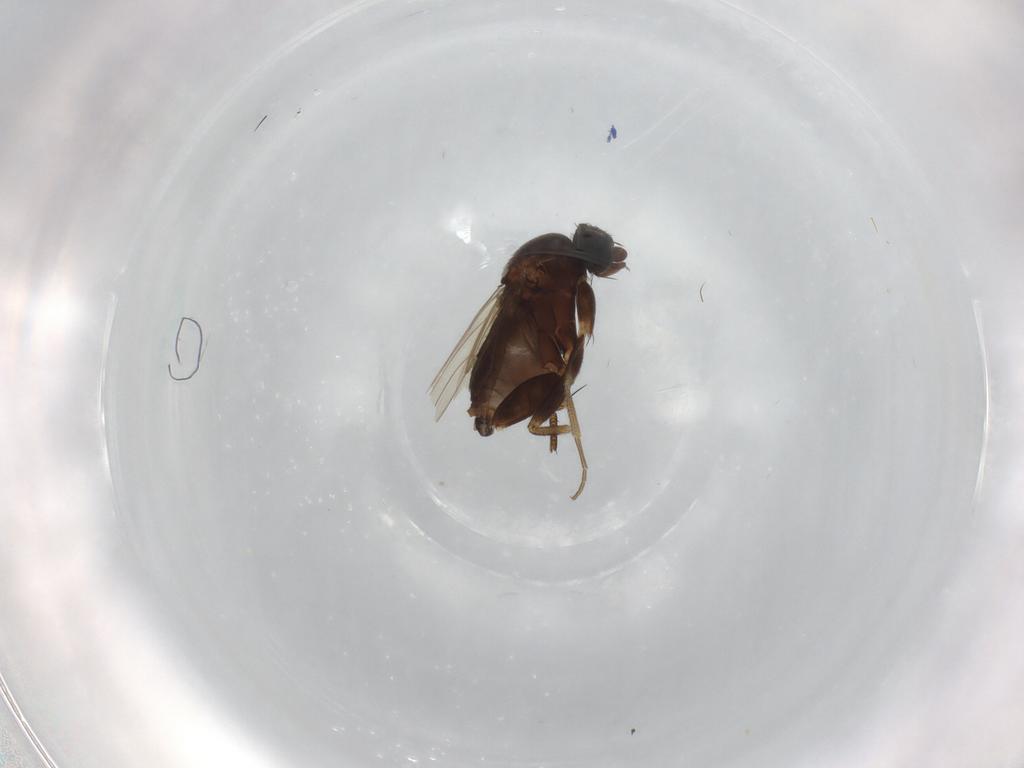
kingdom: Animalia
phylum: Arthropoda
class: Insecta
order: Diptera
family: Phoridae
